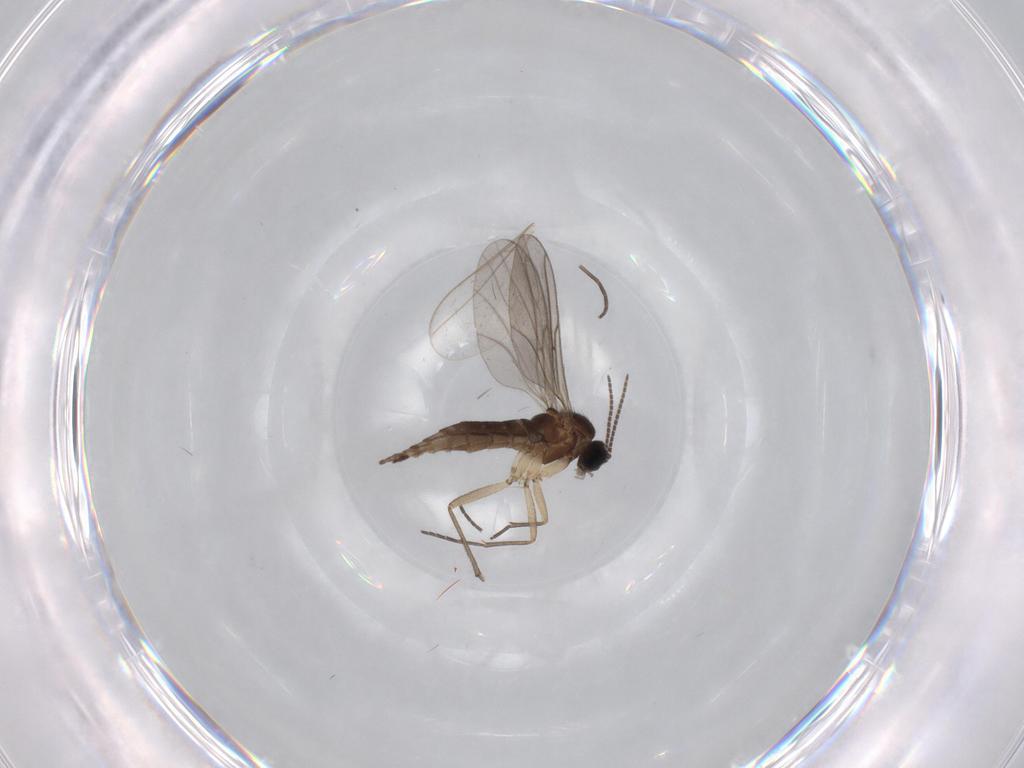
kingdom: Animalia
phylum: Arthropoda
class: Insecta
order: Diptera
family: Sciaridae
